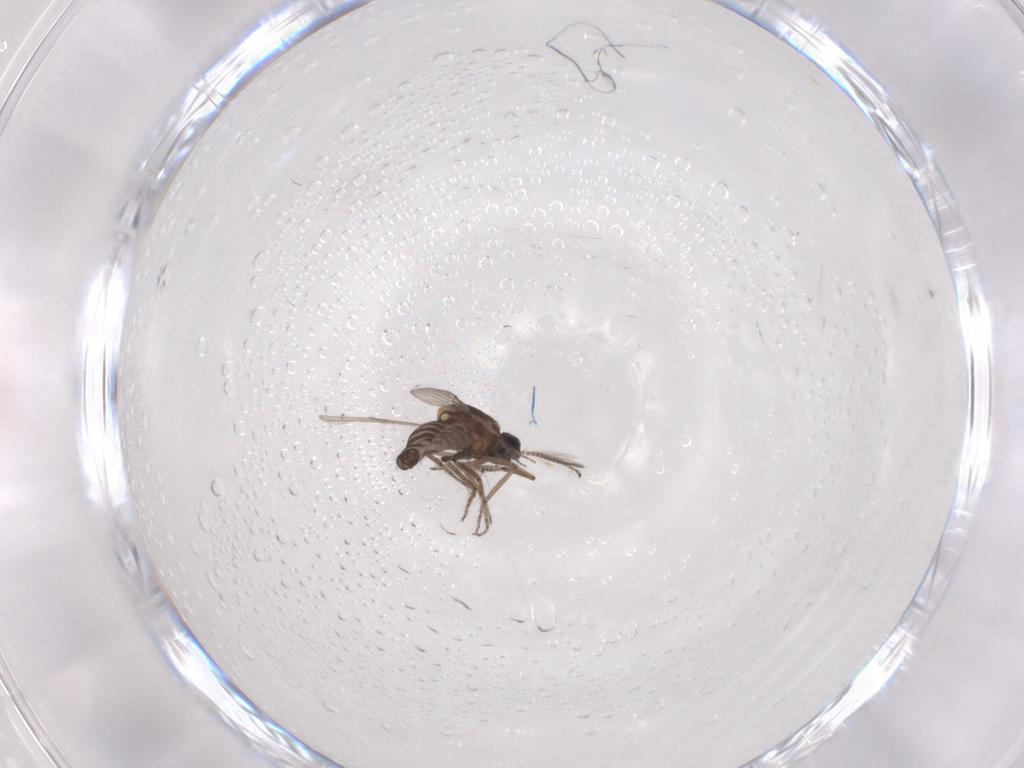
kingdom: Animalia
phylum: Arthropoda
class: Insecta
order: Diptera
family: Ceratopogonidae
